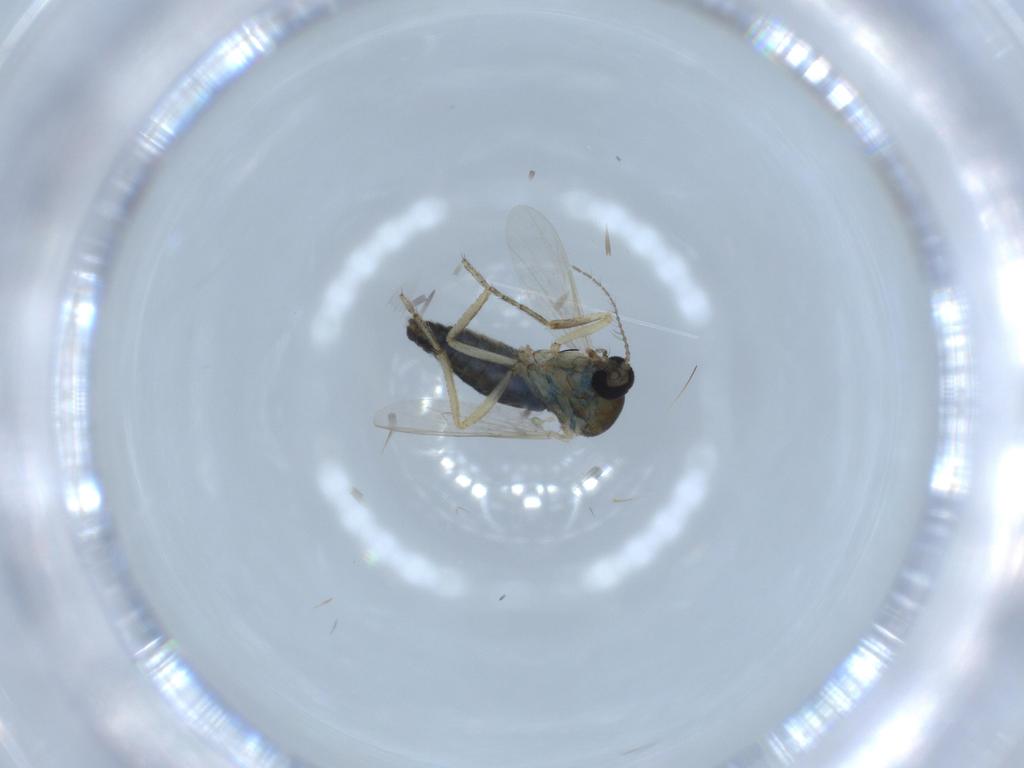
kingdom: Animalia
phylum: Arthropoda
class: Insecta
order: Diptera
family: Ceratopogonidae
